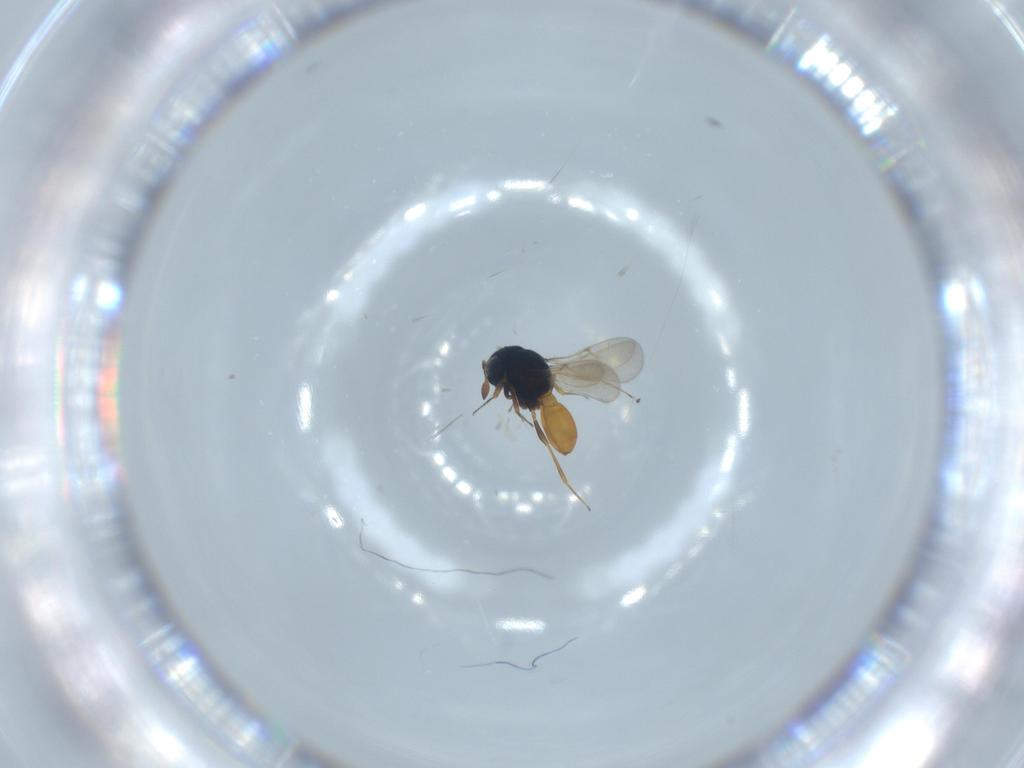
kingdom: Animalia
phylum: Arthropoda
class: Insecta
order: Hymenoptera
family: Scelionidae
